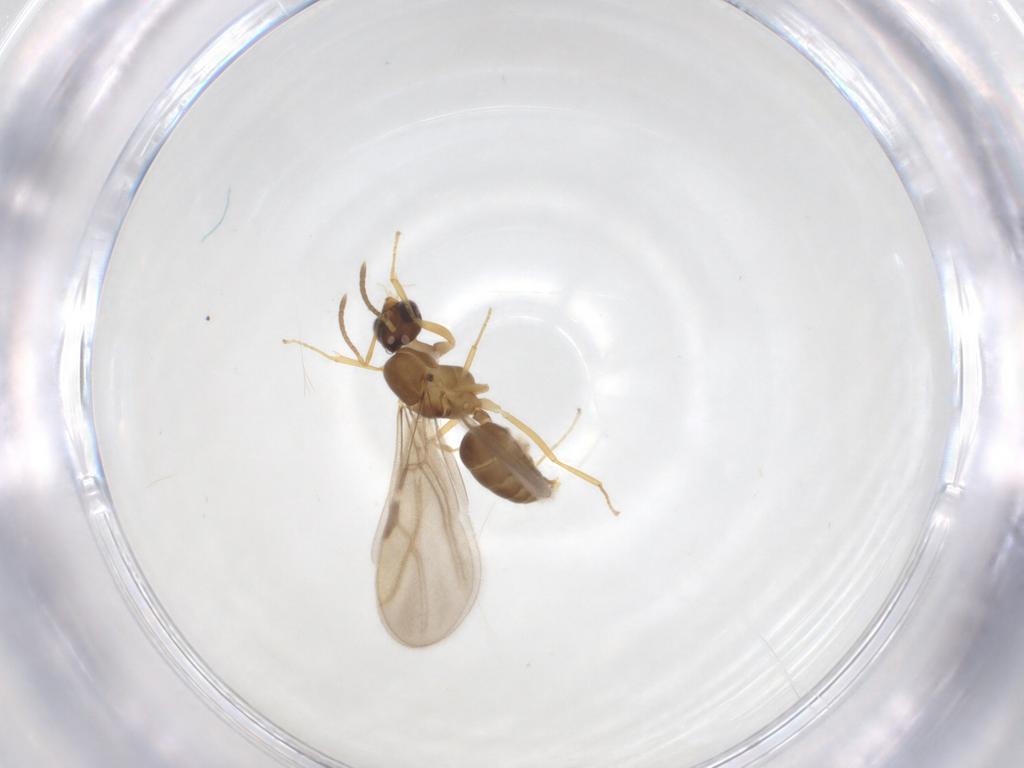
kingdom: Animalia
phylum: Arthropoda
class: Insecta
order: Hymenoptera
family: Formicidae
